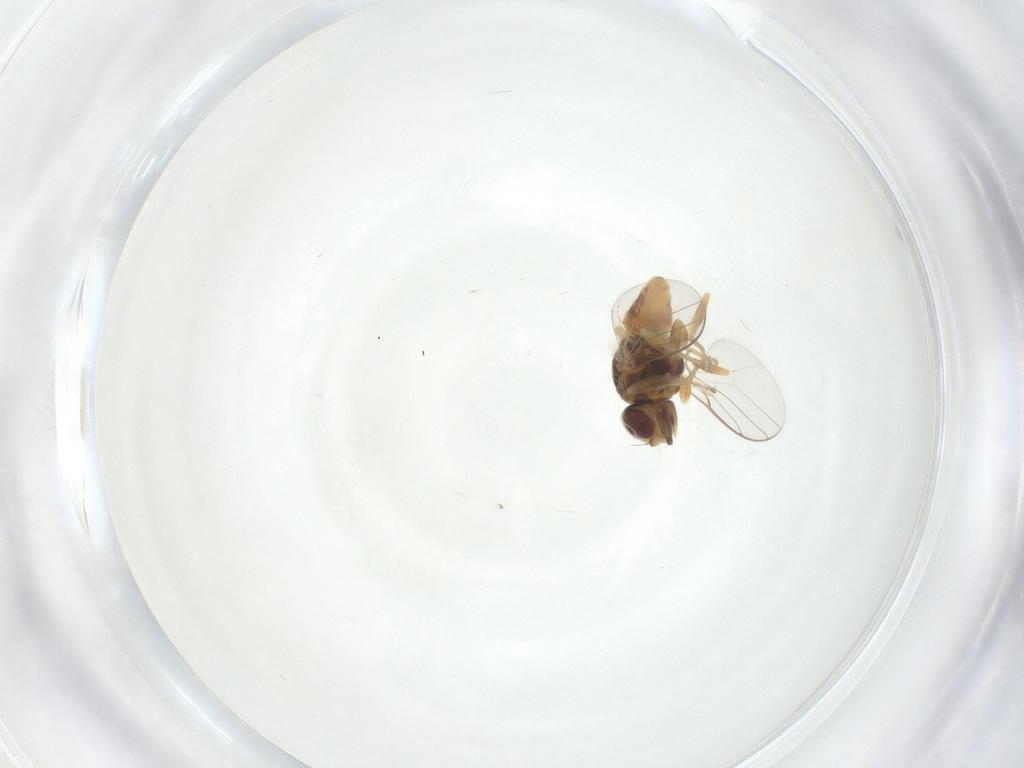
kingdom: Animalia
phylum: Arthropoda
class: Insecta
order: Diptera
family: Chloropidae
